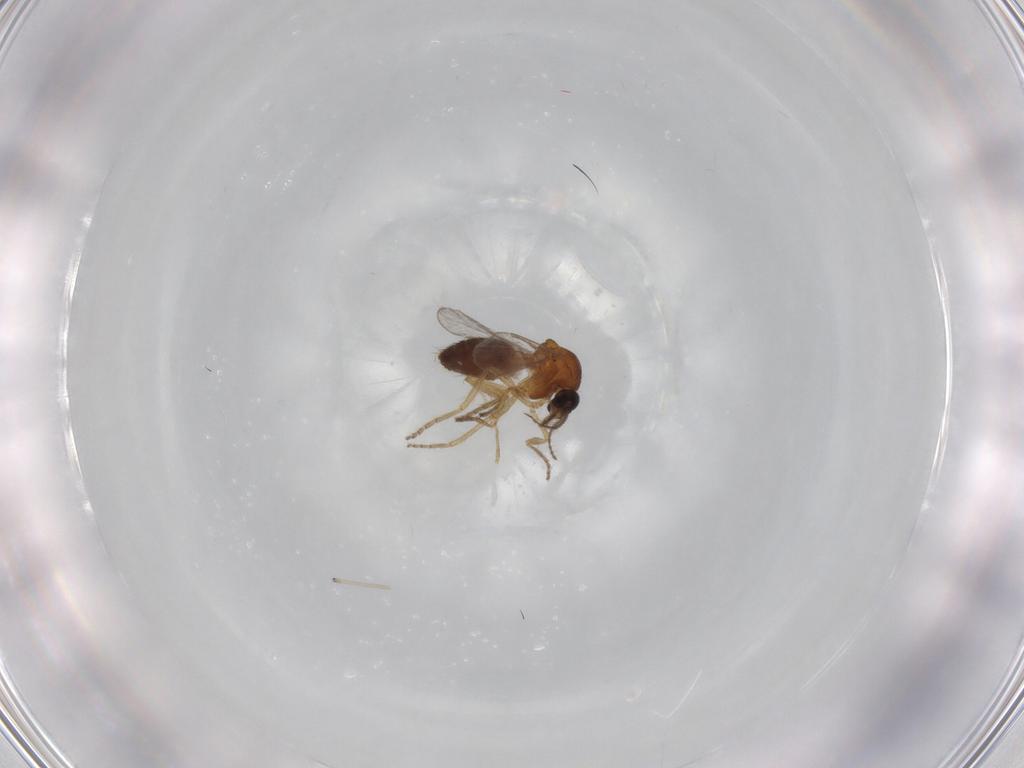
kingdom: Animalia
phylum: Arthropoda
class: Insecta
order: Diptera
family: Ceratopogonidae
